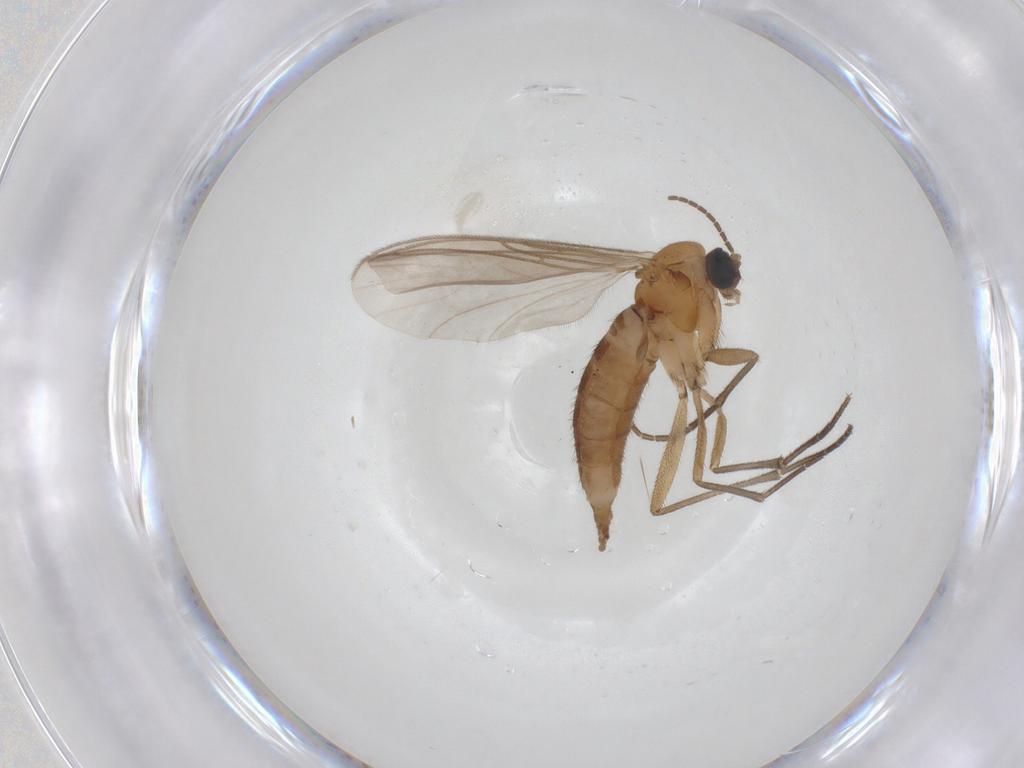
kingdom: Animalia
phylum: Arthropoda
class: Insecta
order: Diptera
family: Sciaridae
